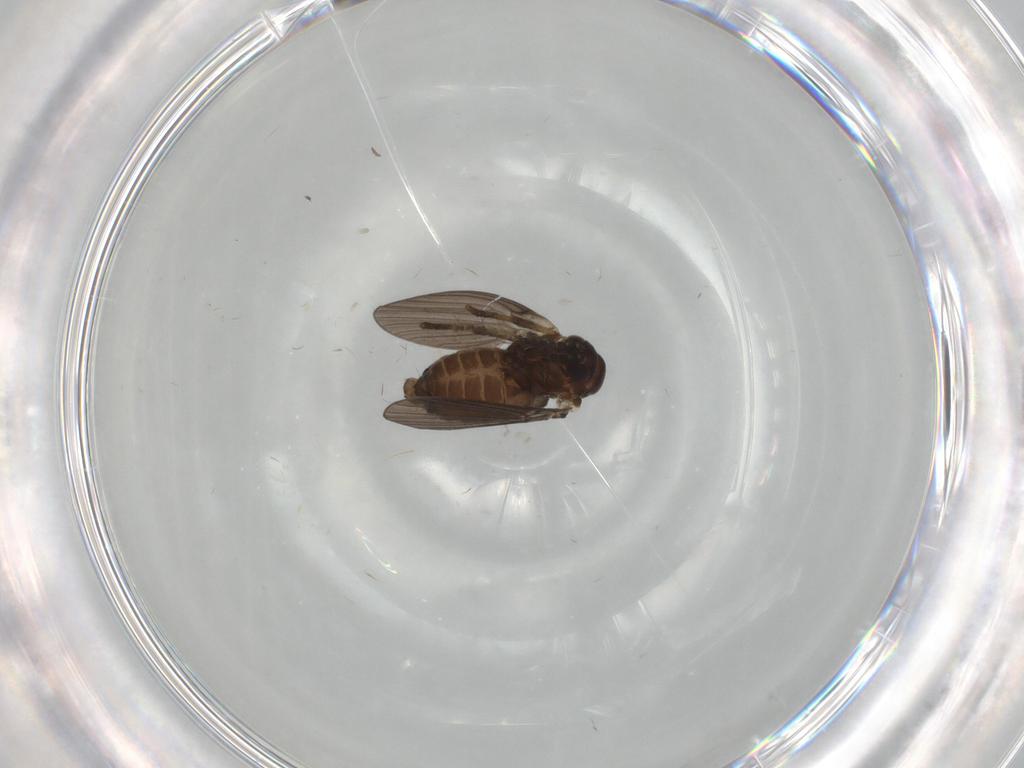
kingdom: Animalia
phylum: Arthropoda
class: Insecta
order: Diptera
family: Psychodidae
